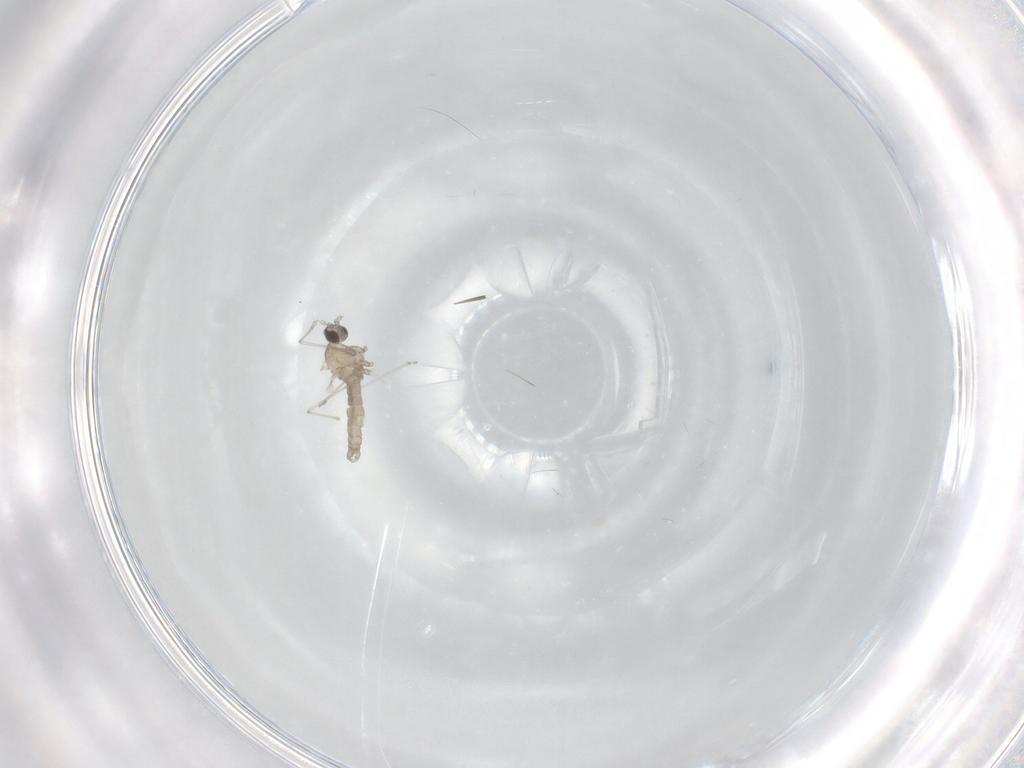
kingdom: Animalia
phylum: Arthropoda
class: Insecta
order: Diptera
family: Cecidomyiidae
